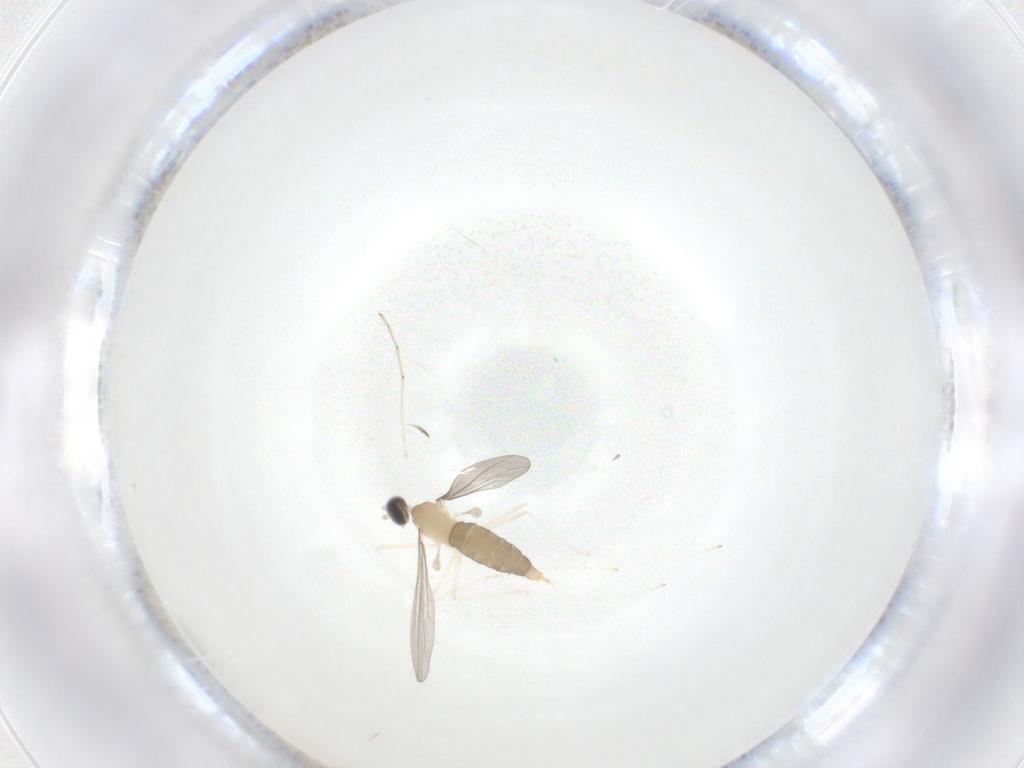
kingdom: Animalia
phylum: Arthropoda
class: Insecta
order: Diptera
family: Cecidomyiidae
